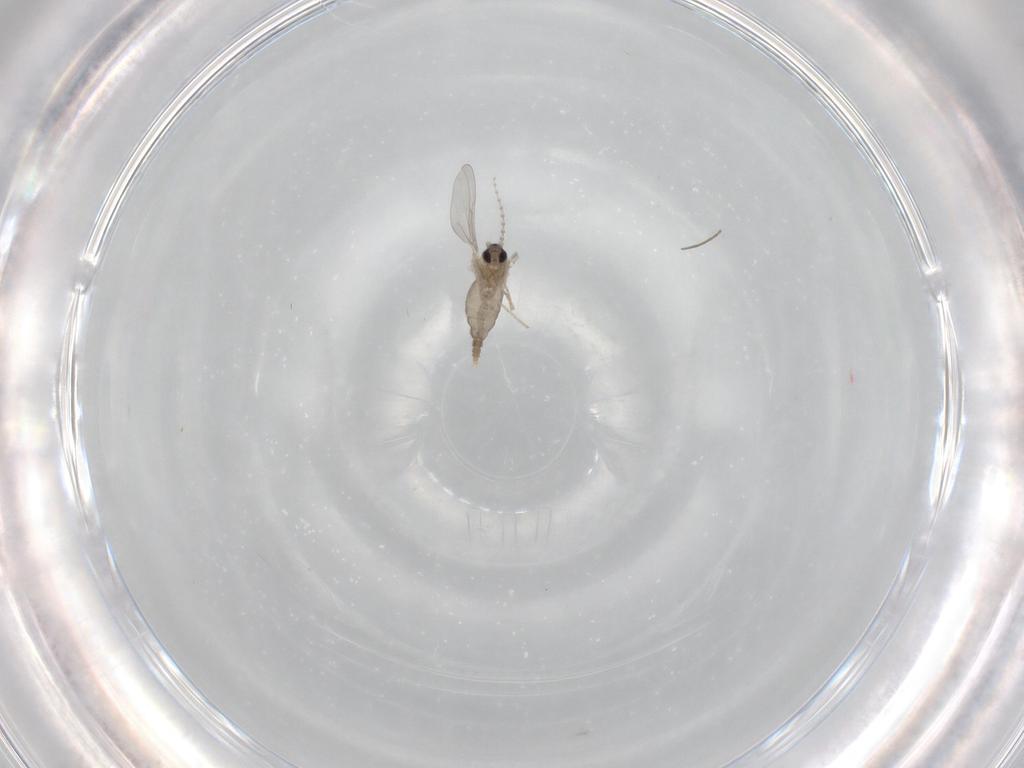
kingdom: Animalia
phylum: Arthropoda
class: Insecta
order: Diptera
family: Cecidomyiidae
